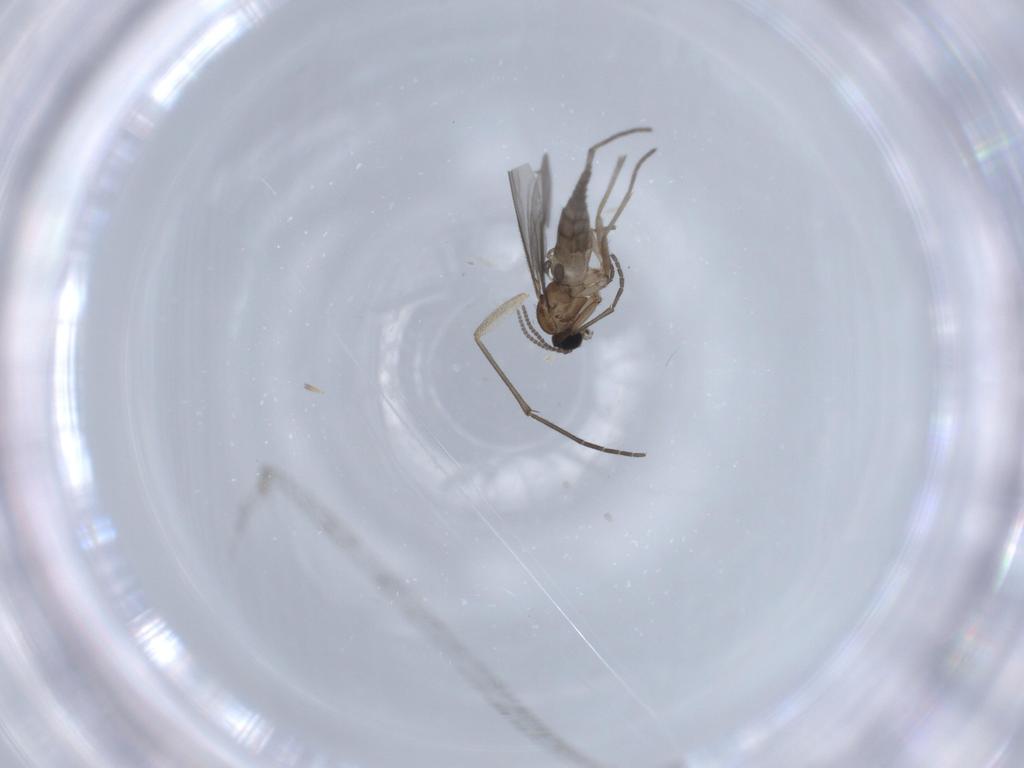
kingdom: Animalia
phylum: Arthropoda
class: Insecta
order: Diptera
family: Sciaridae
